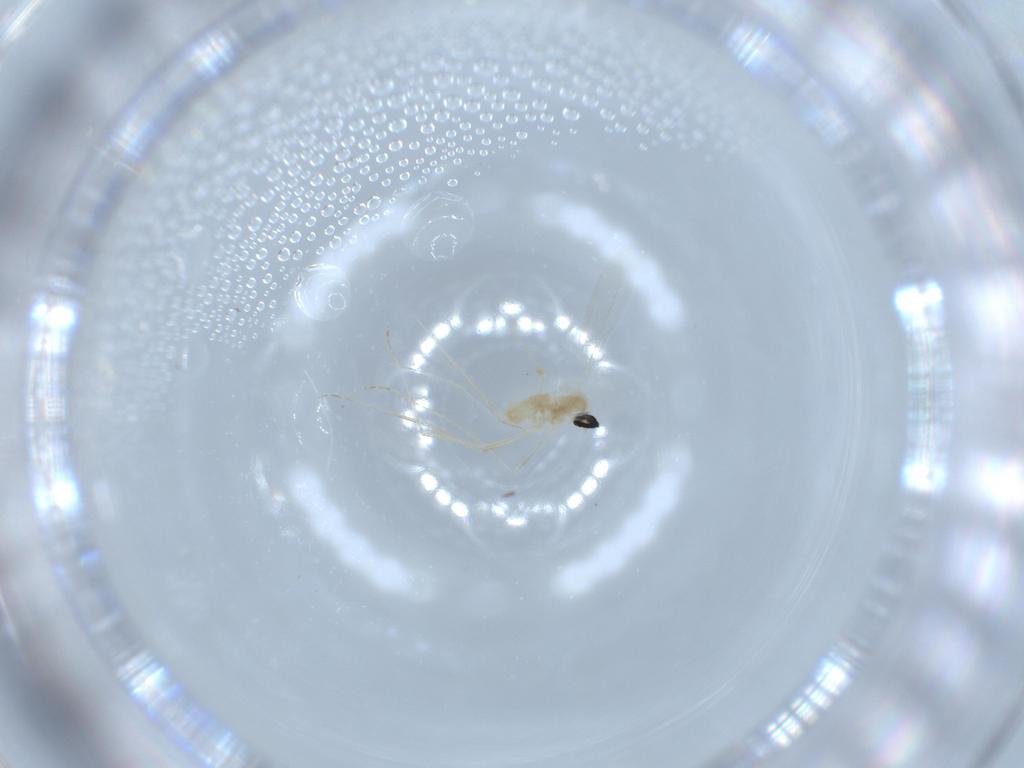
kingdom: Animalia
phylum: Arthropoda
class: Insecta
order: Diptera
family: Cecidomyiidae
